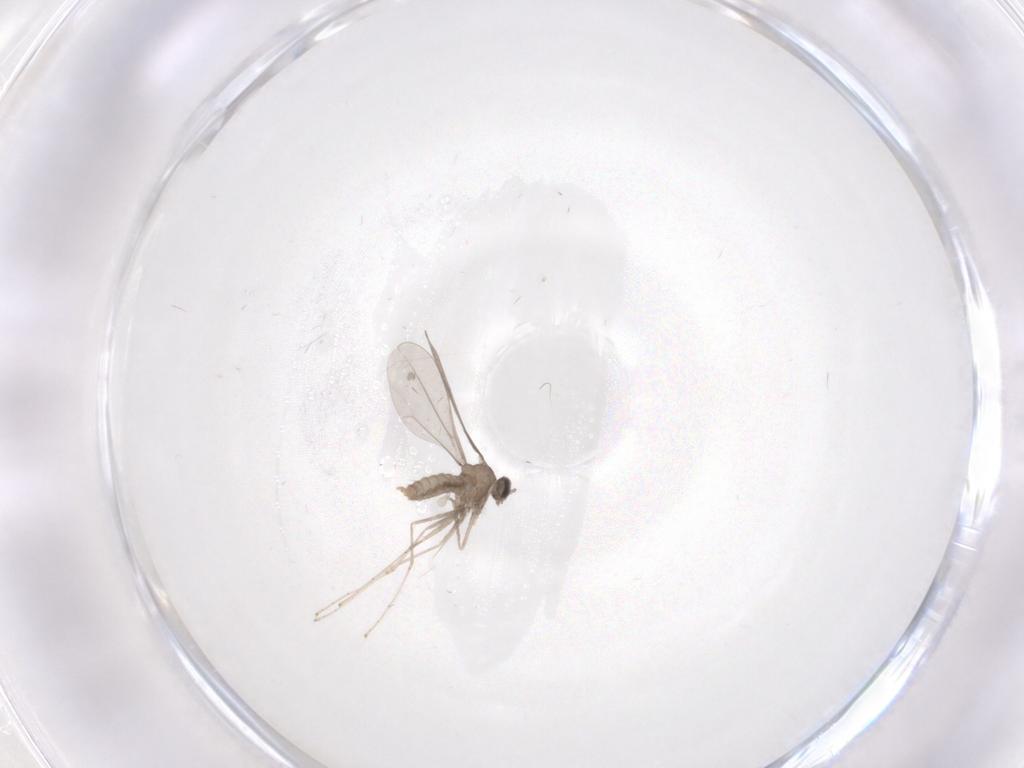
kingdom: Animalia
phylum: Arthropoda
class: Insecta
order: Diptera
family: Cecidomyiidae
